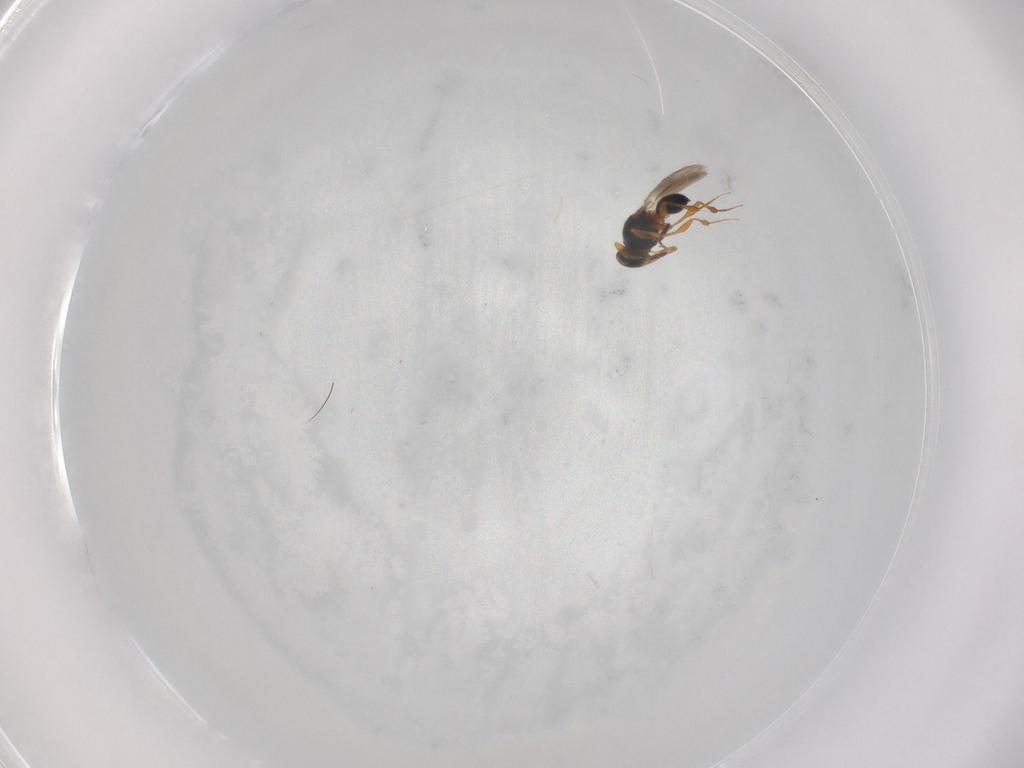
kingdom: Animalia
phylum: Arthropoda
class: Insecta
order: Hymenoptera
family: Platygastridae
